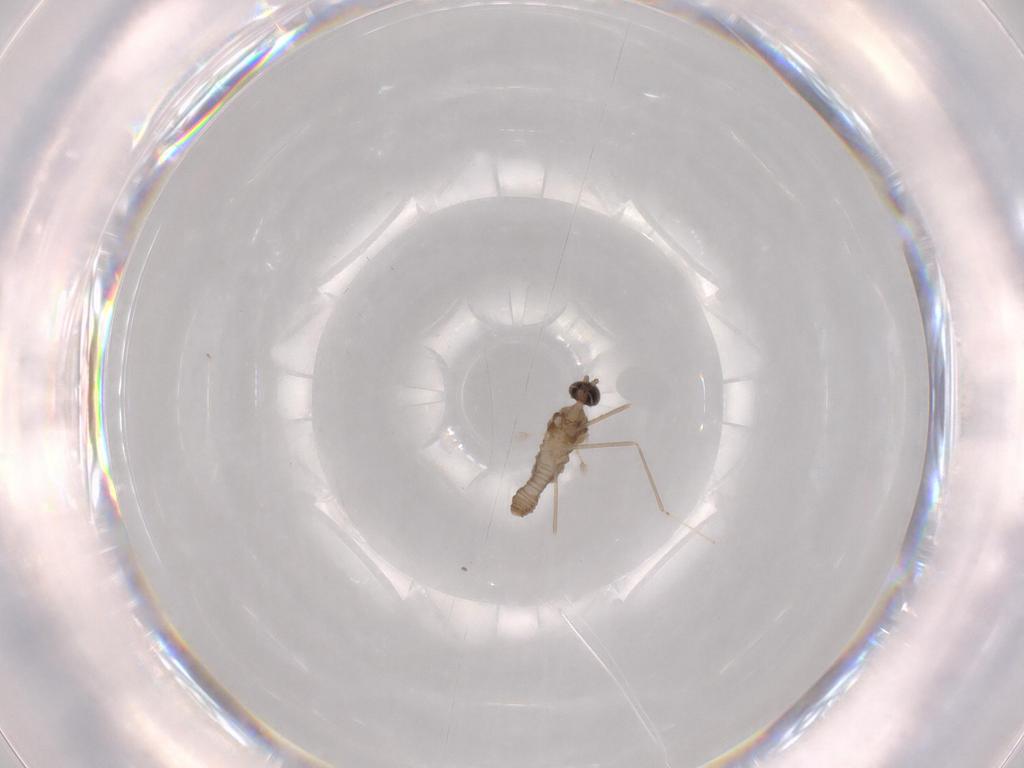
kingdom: Animalia
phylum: Arthropoda
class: Insecta
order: Diptera
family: Cecidomyiidae
